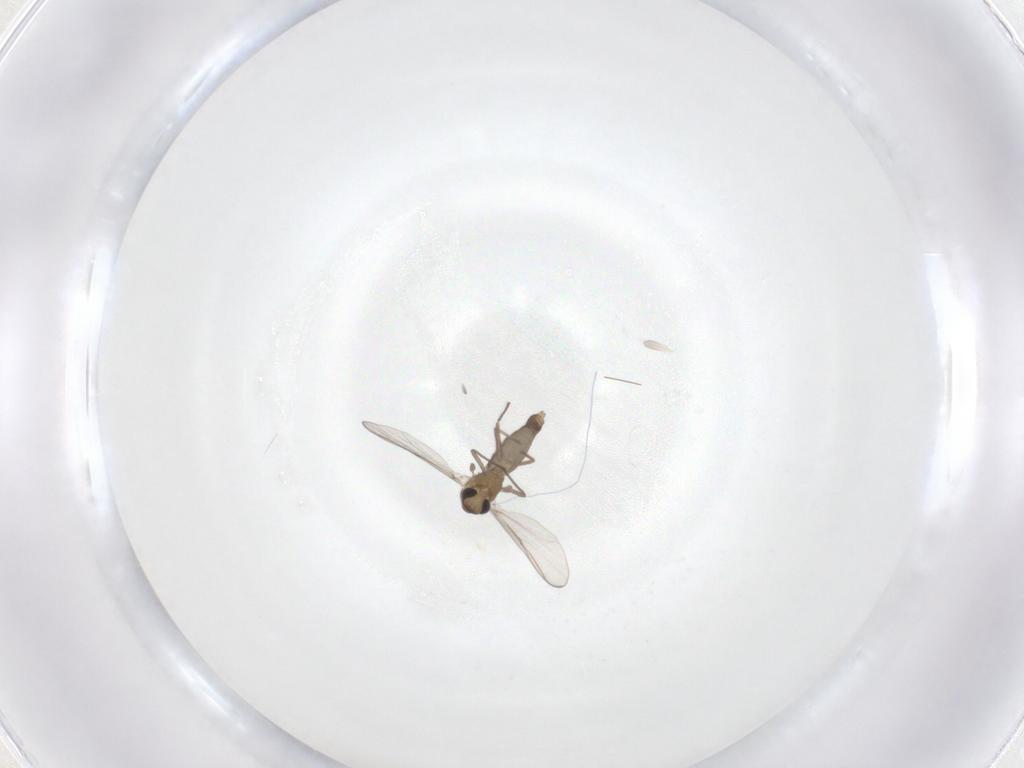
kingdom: Animalia
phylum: Arthropoda
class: Insecta
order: Diptera
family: Chironomidae
